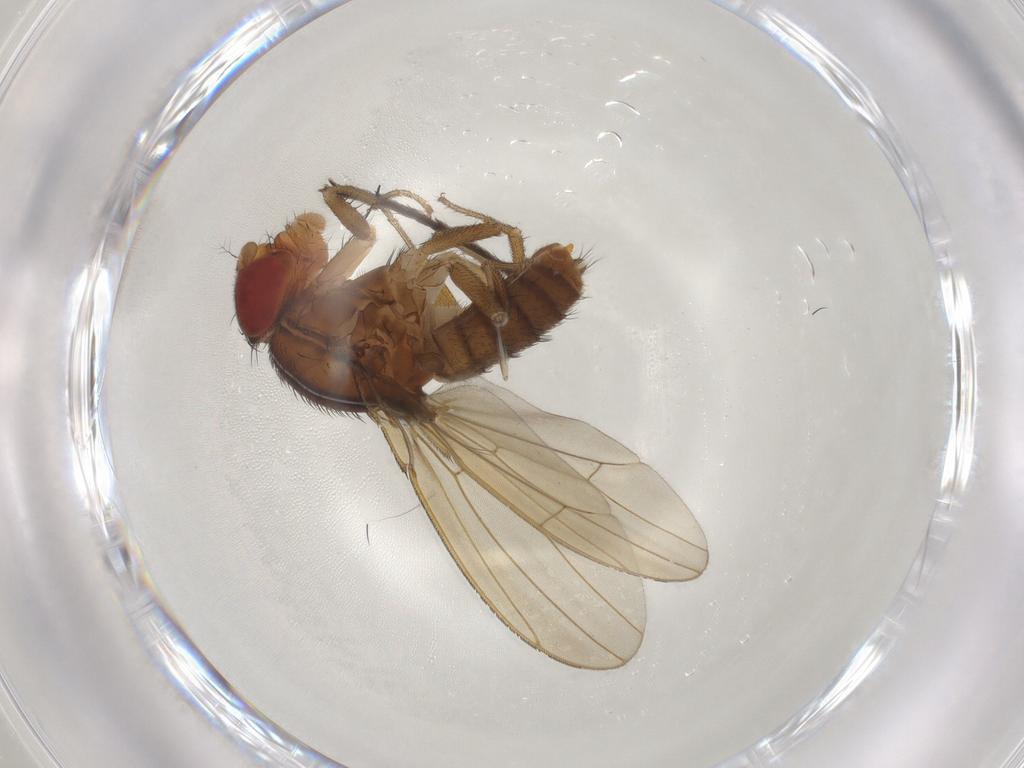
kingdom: Animalia
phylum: Arthropoda
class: Insecta
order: Diptera
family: Drosophilidae
